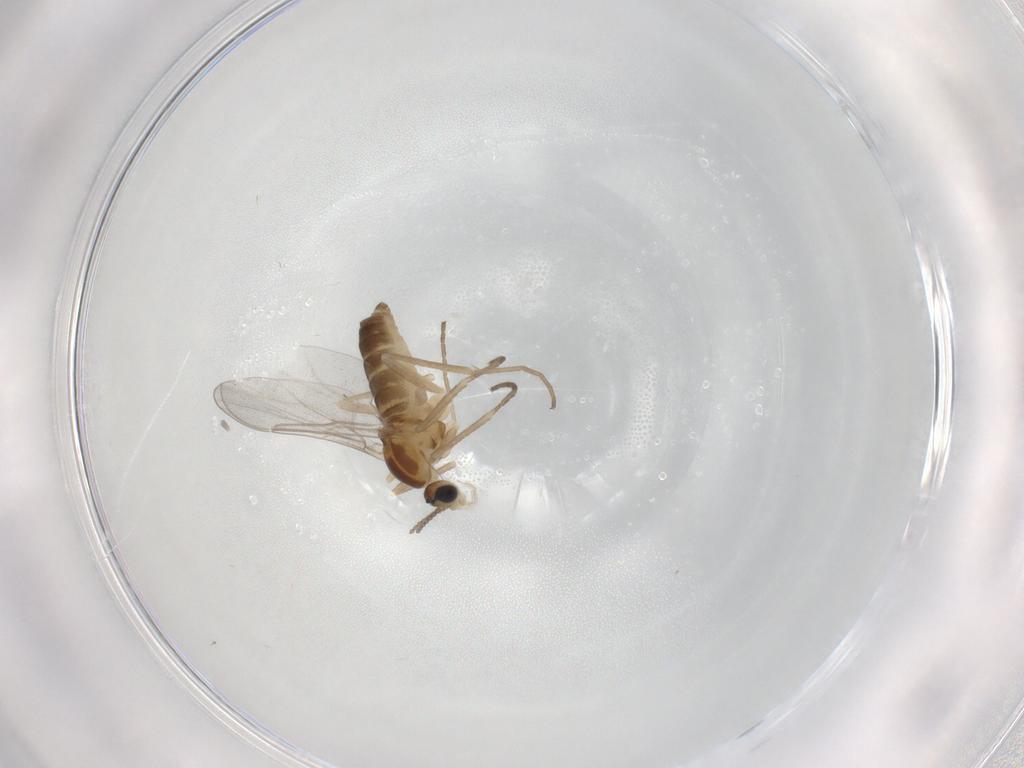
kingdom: Animalia
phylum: Arthropoda
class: Insecta
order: Diptera
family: Cecidomyiidae
